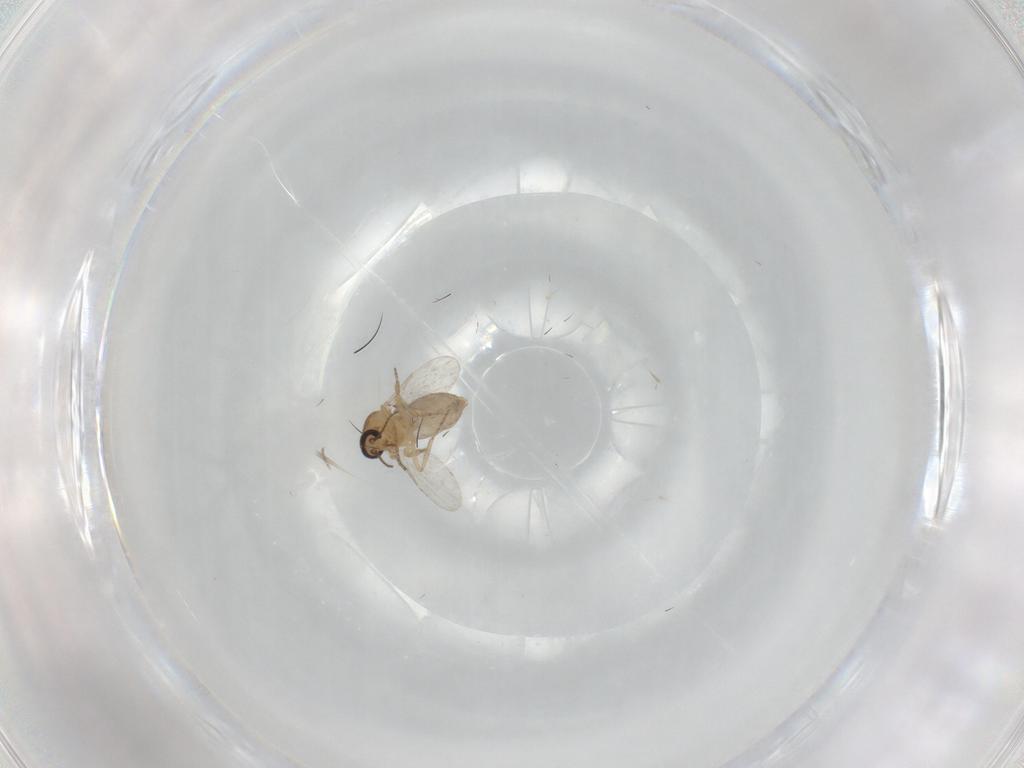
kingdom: Animalia
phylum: Arthropoda
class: Insecta
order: Diptera
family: Ceratopogonidae
